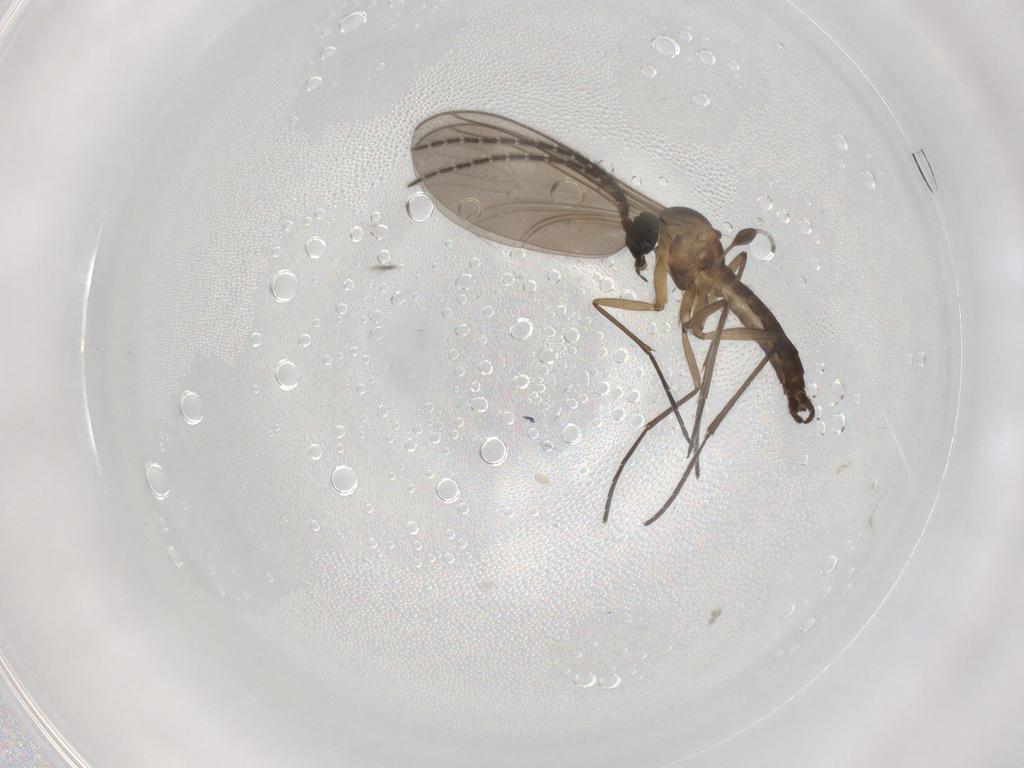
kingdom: Animalia
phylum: Arthropoda
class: Insecta
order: Diptera
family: Sciaridae
